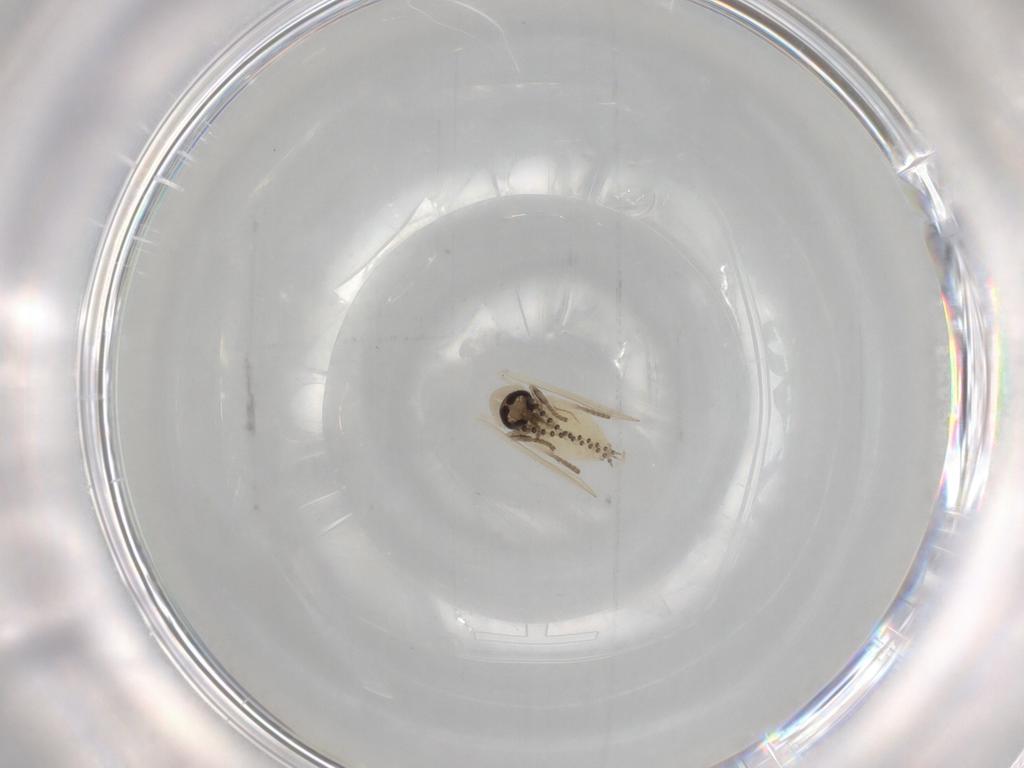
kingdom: Animalia
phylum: Arthropoda
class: Insecta
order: Diptera
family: Psychodidae
